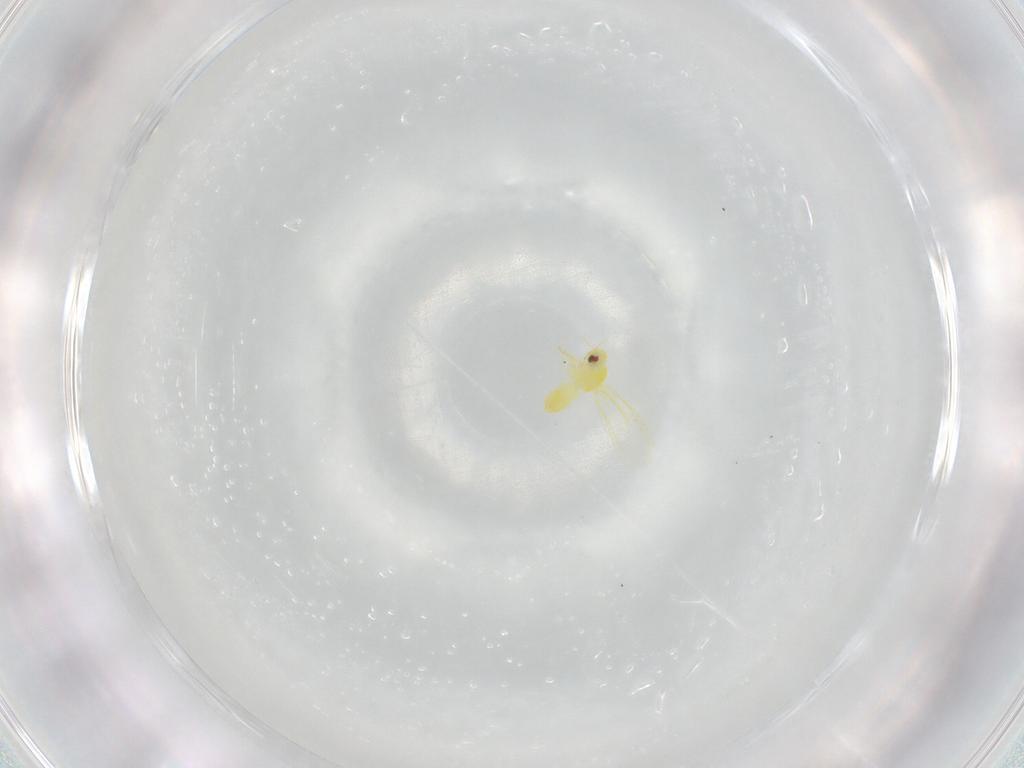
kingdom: Animalia
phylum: Arthropoda
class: Insecta
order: Hemiptera
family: Aleyrodidae
